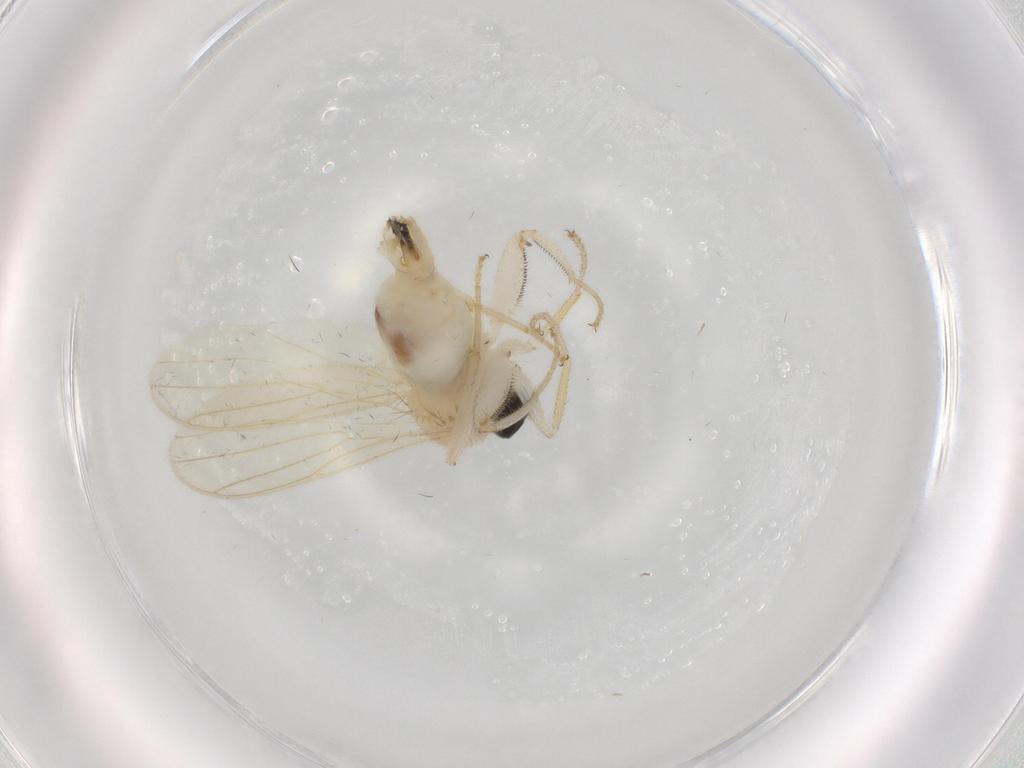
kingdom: Animalia
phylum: Arthropoda
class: Insecta
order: Diptera
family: Hybotidae
